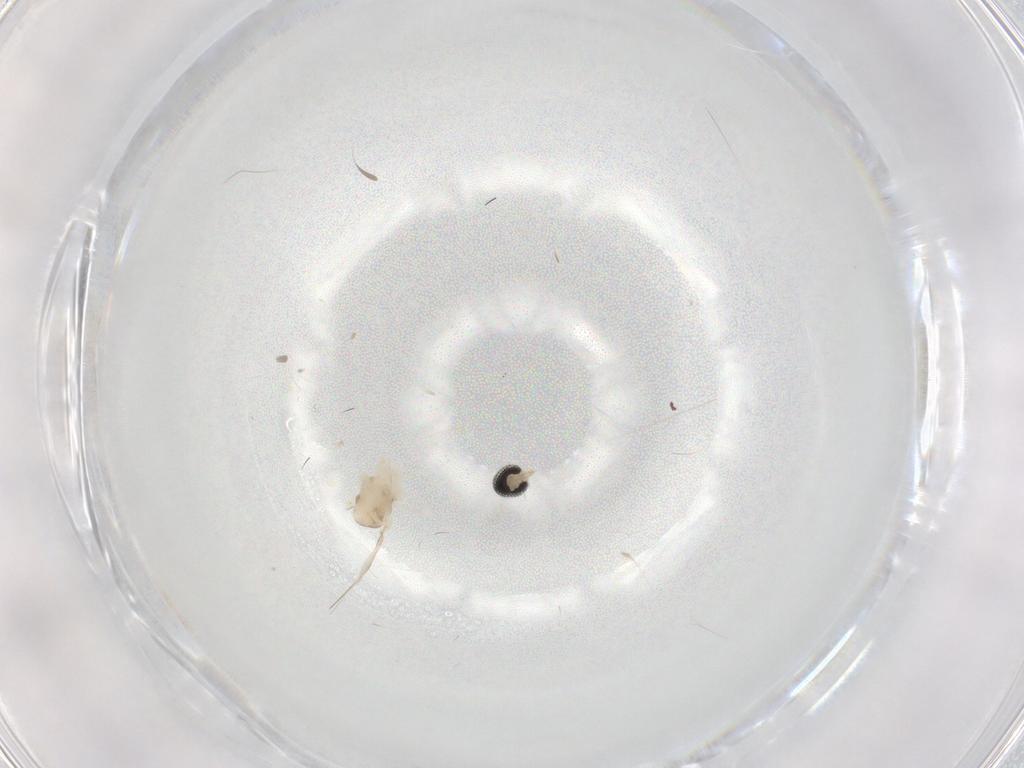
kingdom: Animalia
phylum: Arthropoda
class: Insecta
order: Diptera
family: Cecidomyiidae
